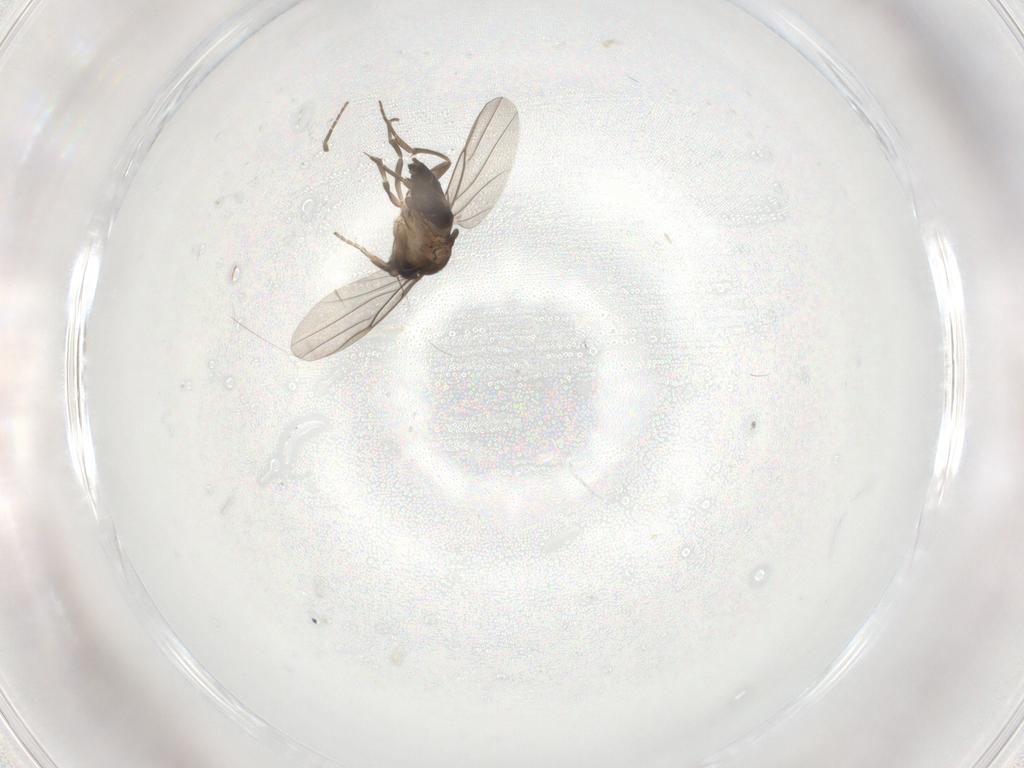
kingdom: Animalia
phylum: Arthropoda
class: Insecta
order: Diptera
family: Phoridae
